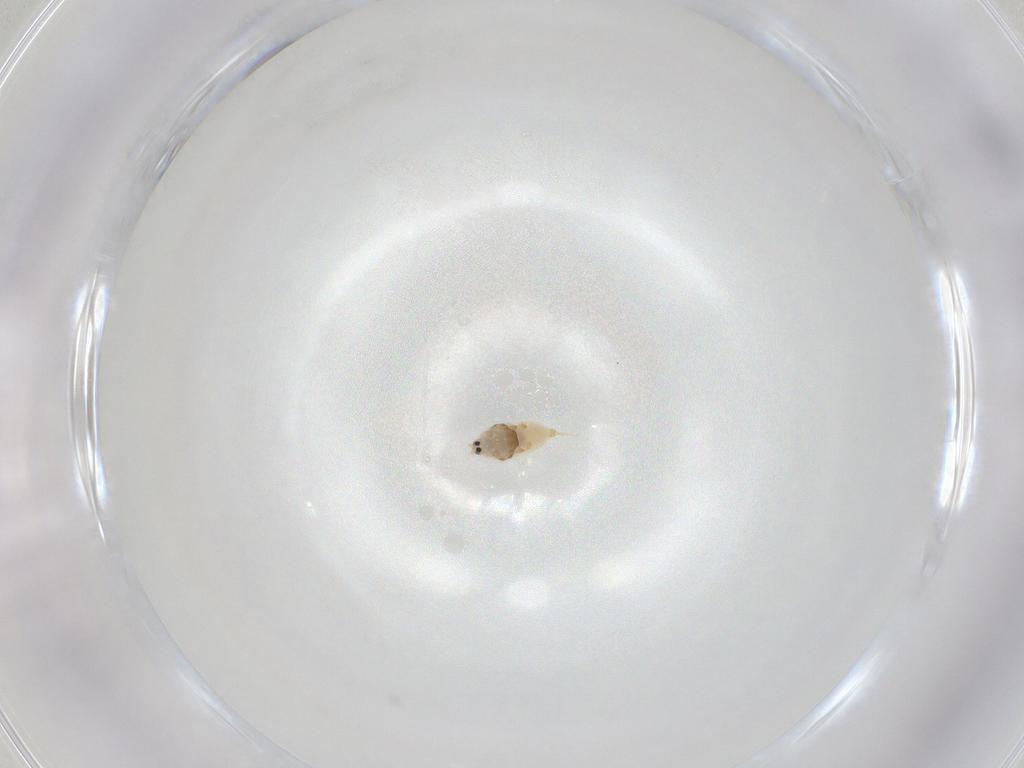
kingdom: Animalia
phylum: Arthropoda
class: Insecta
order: Hemiptera
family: Diaspididae
